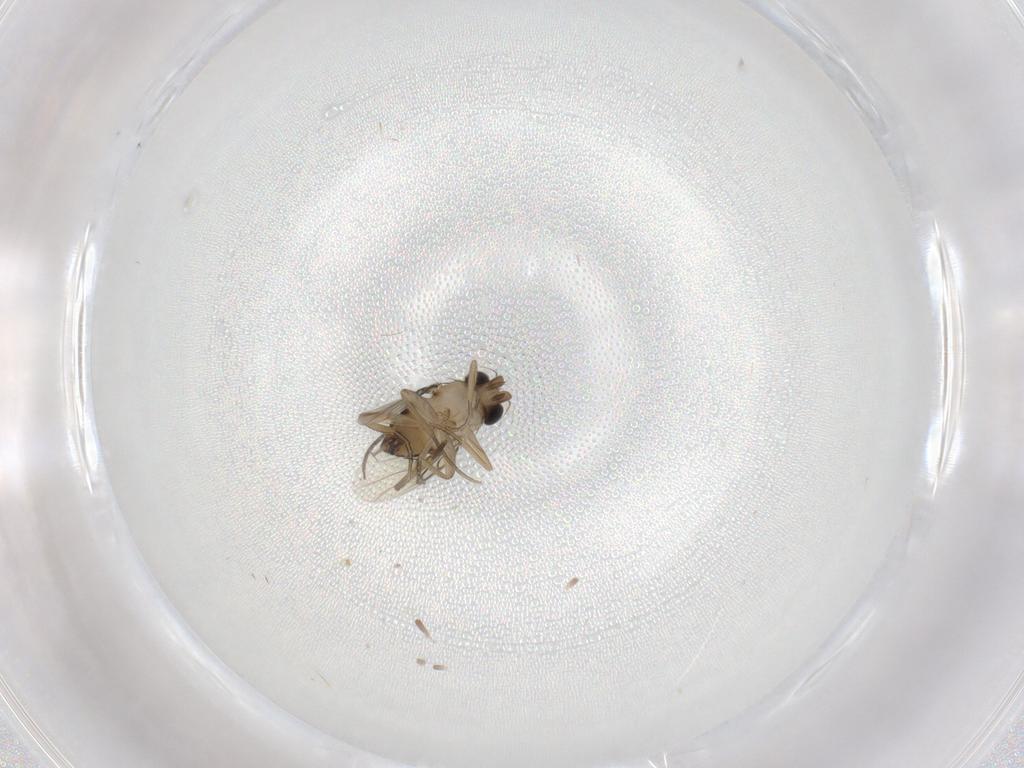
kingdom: Animalia
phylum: Arthropoda
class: Insecta
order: Diptera
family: Phoridae
